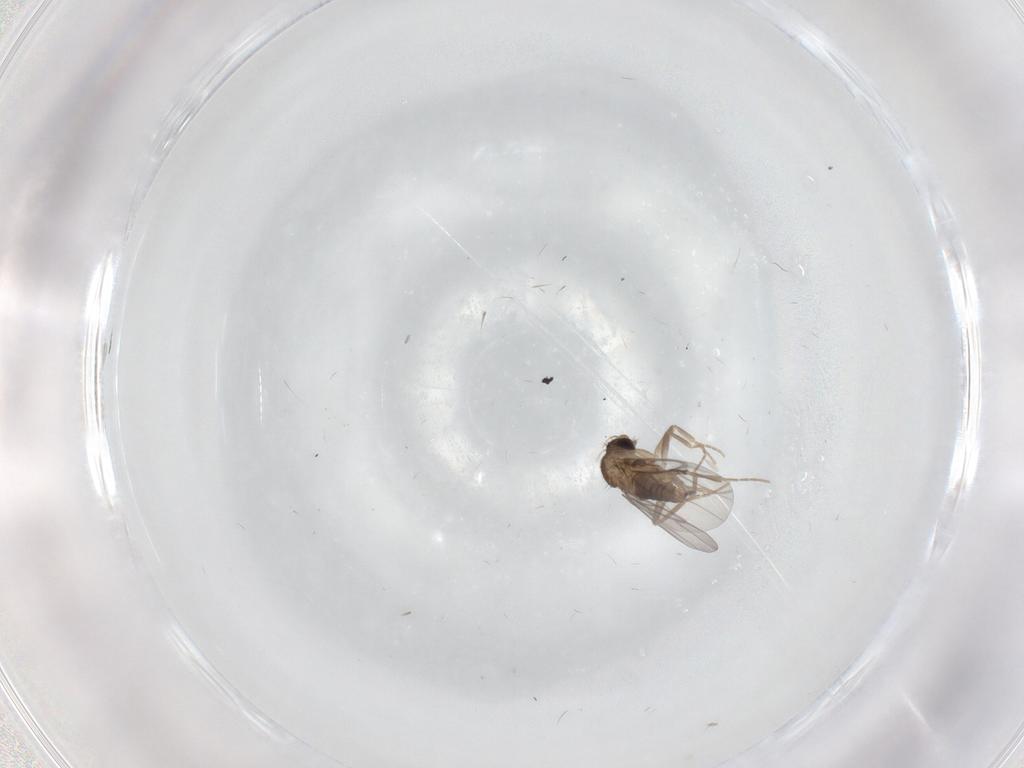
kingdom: Animalia
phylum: Arthropoda
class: Insecta
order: Diptera
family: Cecidomyiidae
